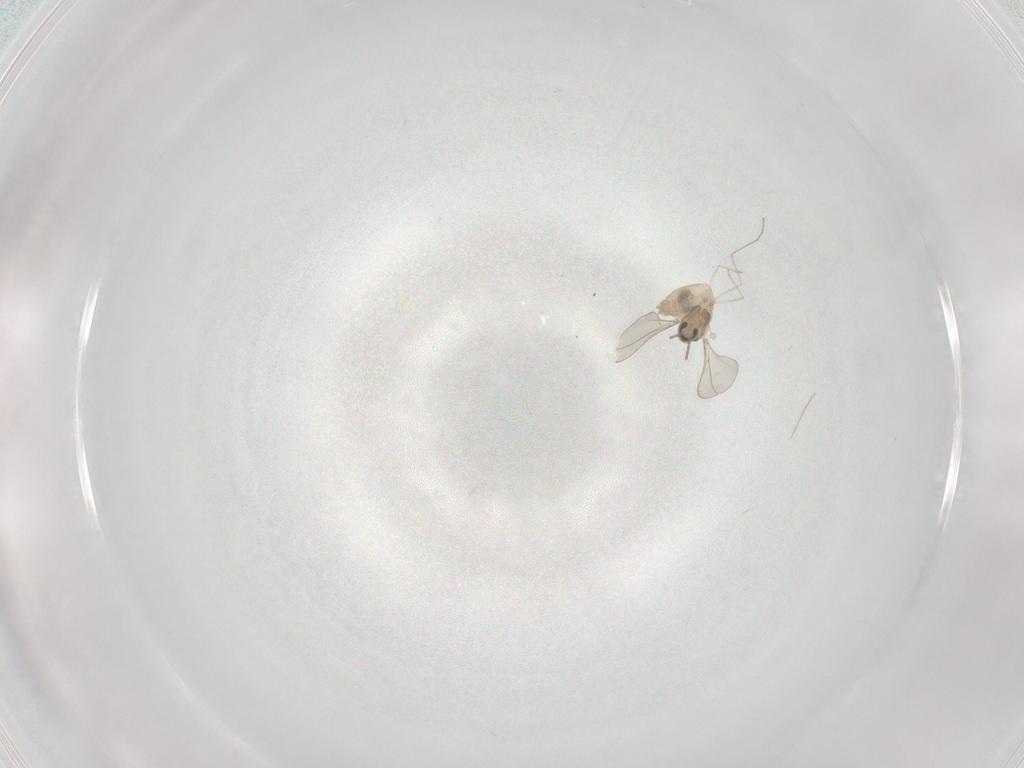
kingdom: Animalia
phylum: Arthropoda
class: Insecta
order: Diptera
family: Cecidomyiidae
